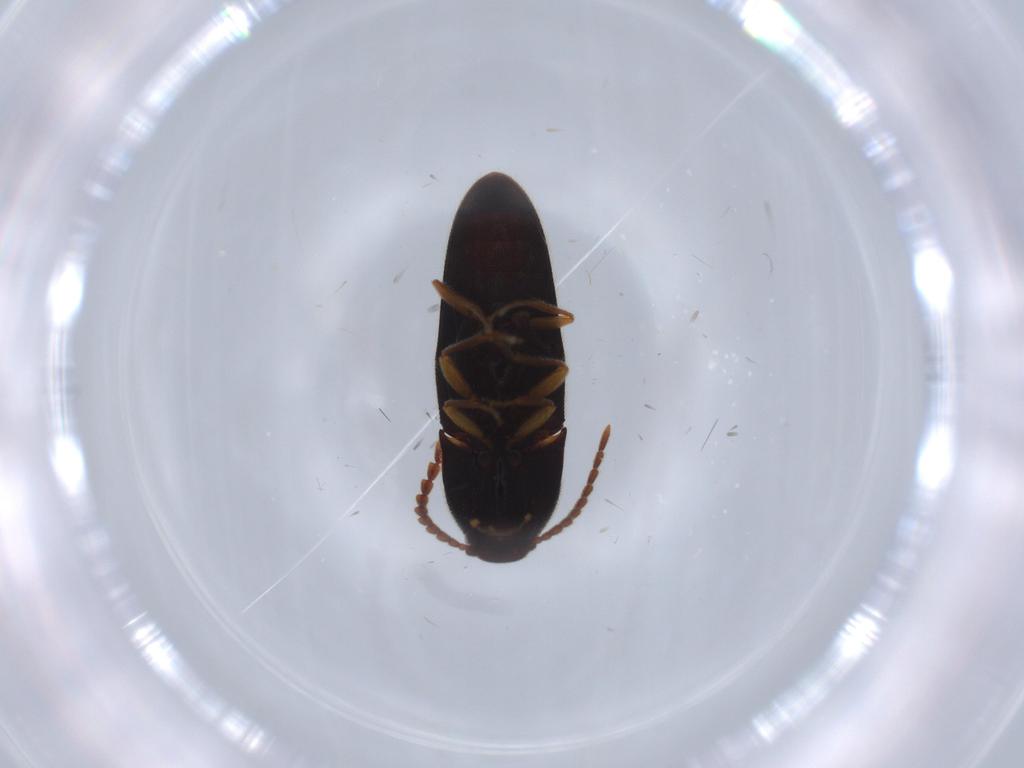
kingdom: Animalia
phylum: Arthropoda
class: Insecta
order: Coleoptera
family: Elateridae
